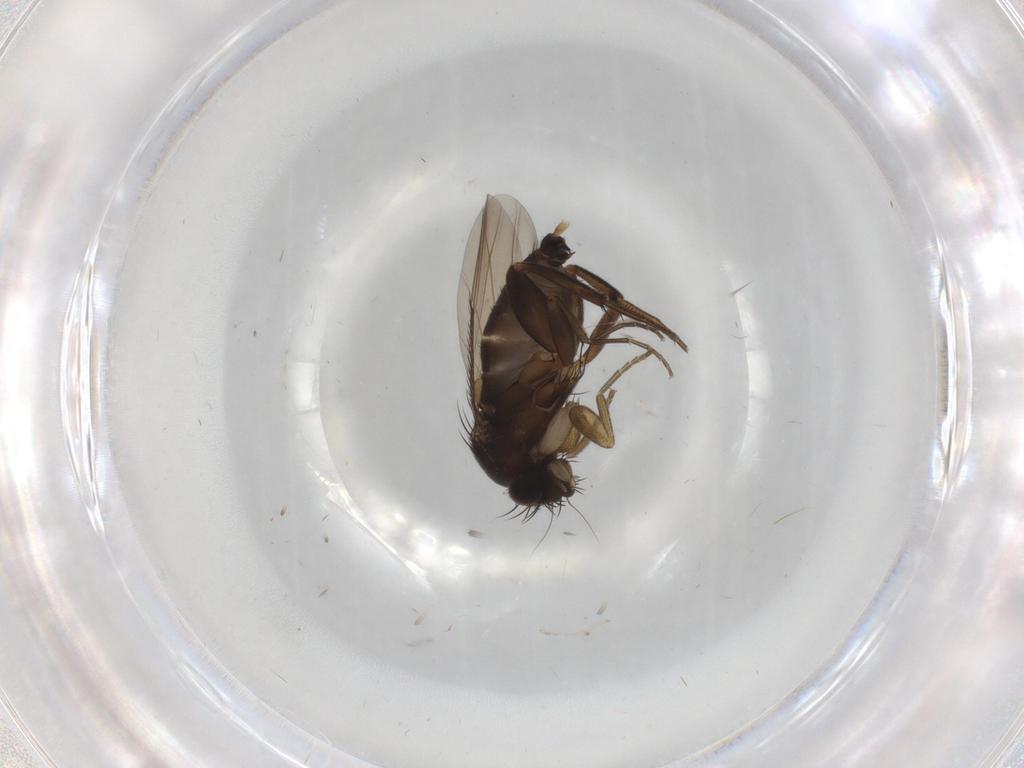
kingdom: Animalia
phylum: Arthropoda
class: Insecta
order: Diptera
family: Phoridae
